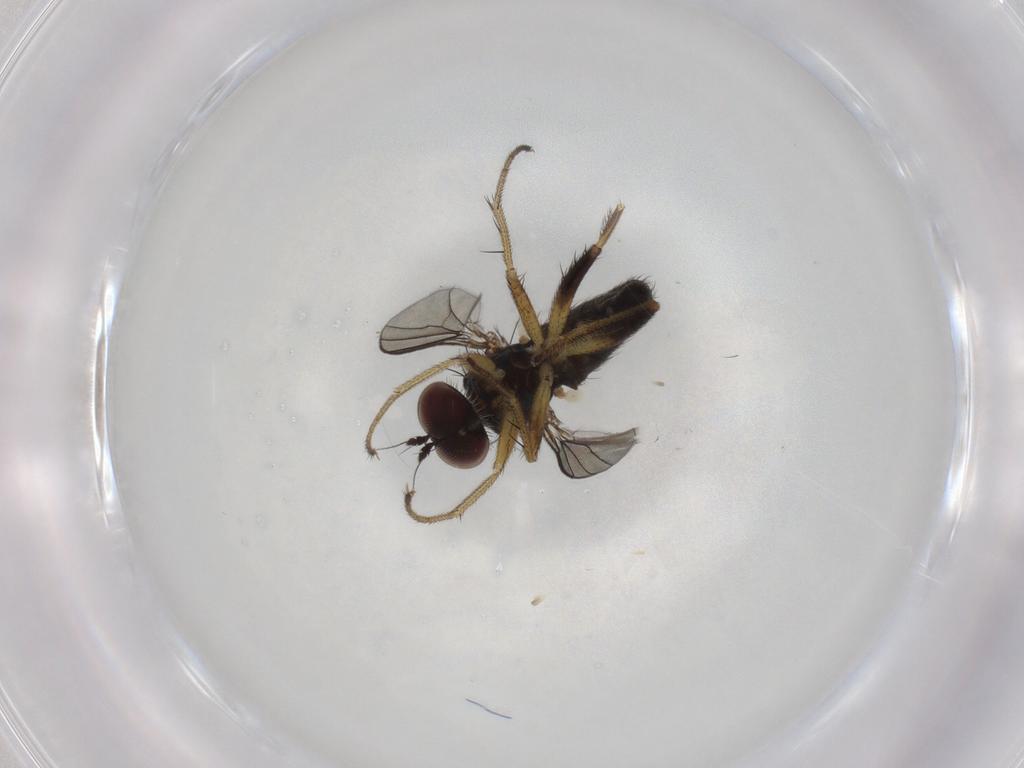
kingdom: Animalia
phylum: Arthropoda
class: Insecta
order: Diptera
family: Dolichopodidae
